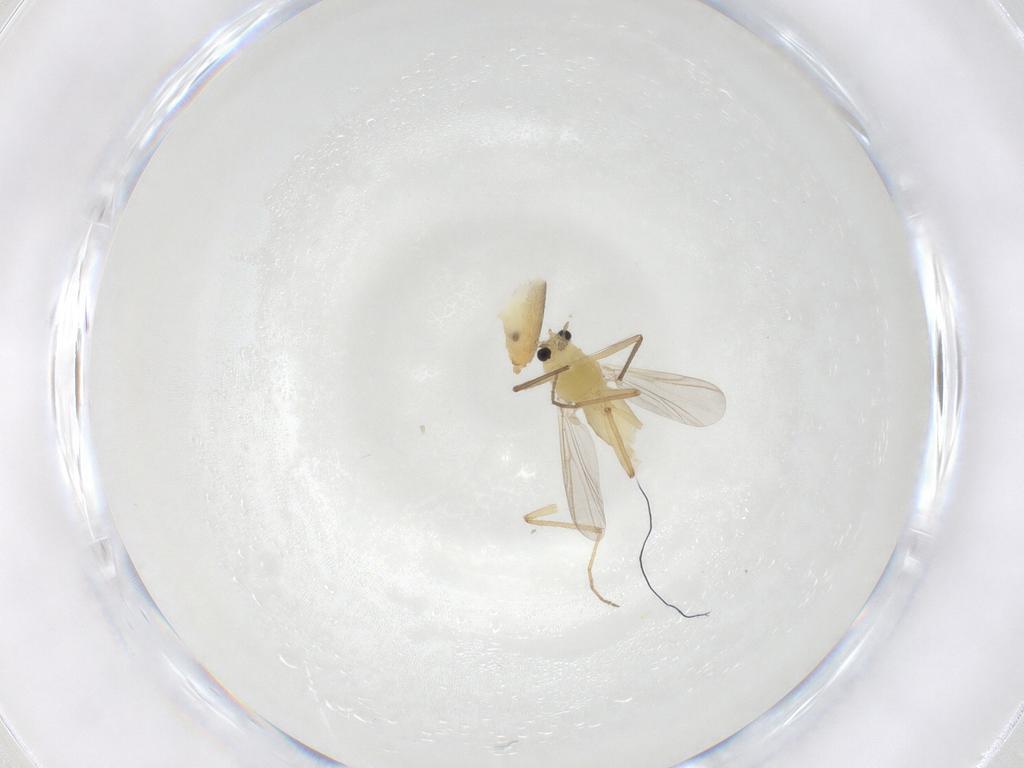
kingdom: Animalia
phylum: Arthropoda
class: Insecta
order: Diptera
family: Chironomidae
